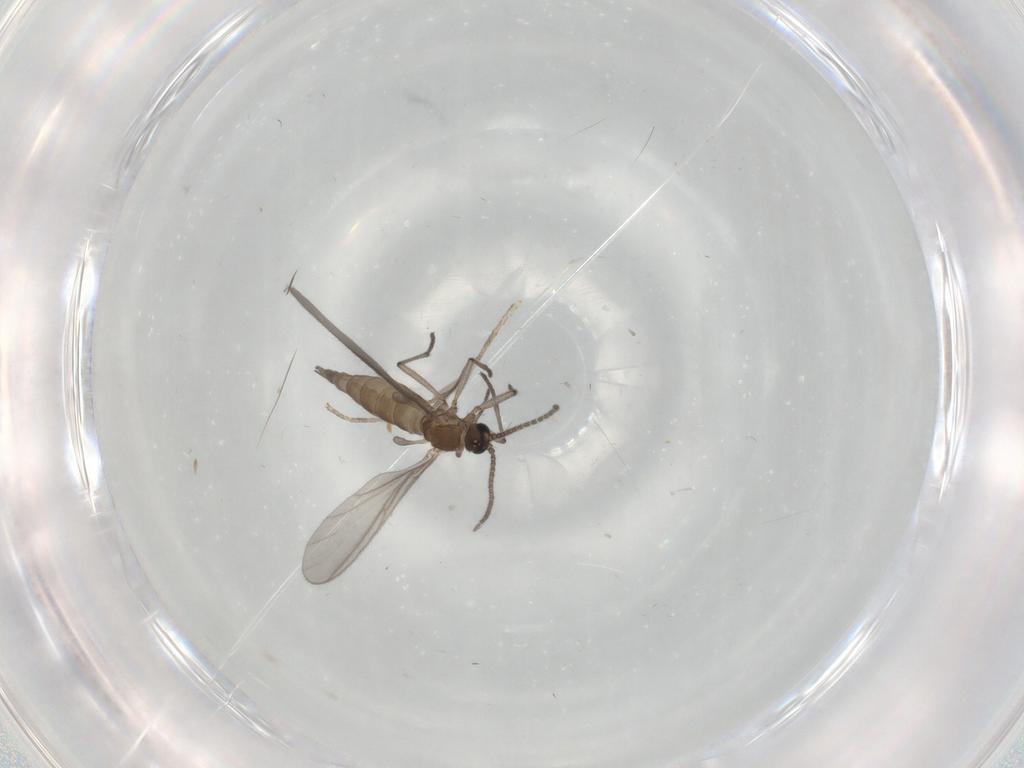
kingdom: Animalia
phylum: Arthropoda
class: Insecta
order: Diptera
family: Sciaridae
